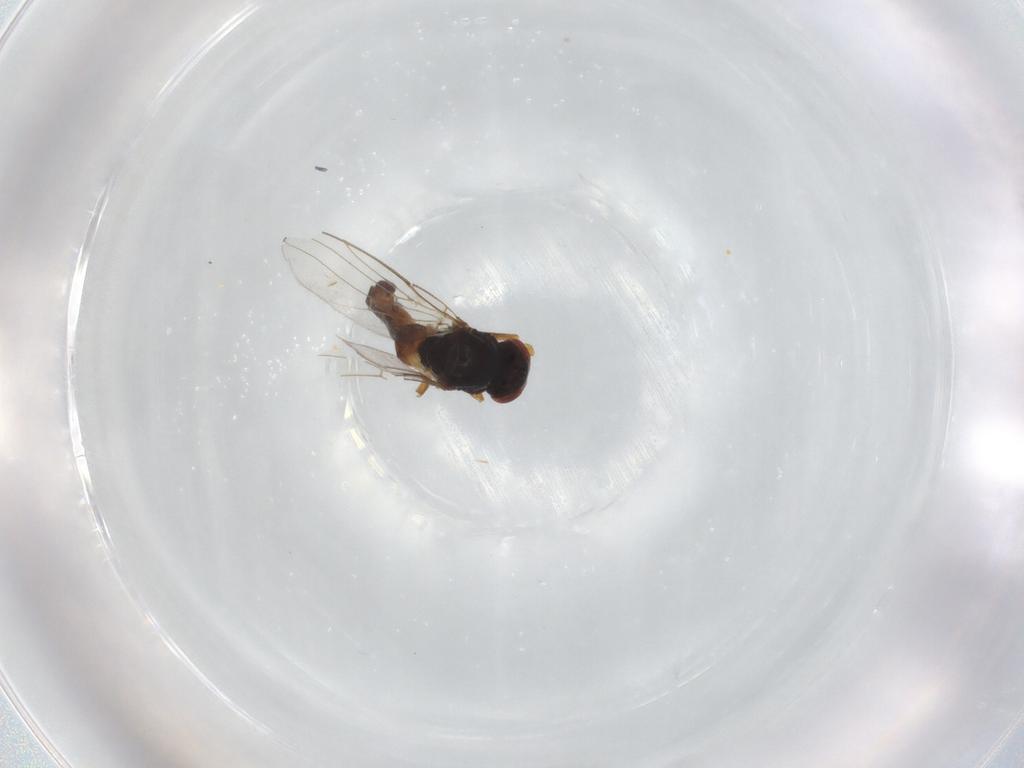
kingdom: Animalia
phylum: Arthropoda
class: Insecta
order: Diptera
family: Chloropidae
